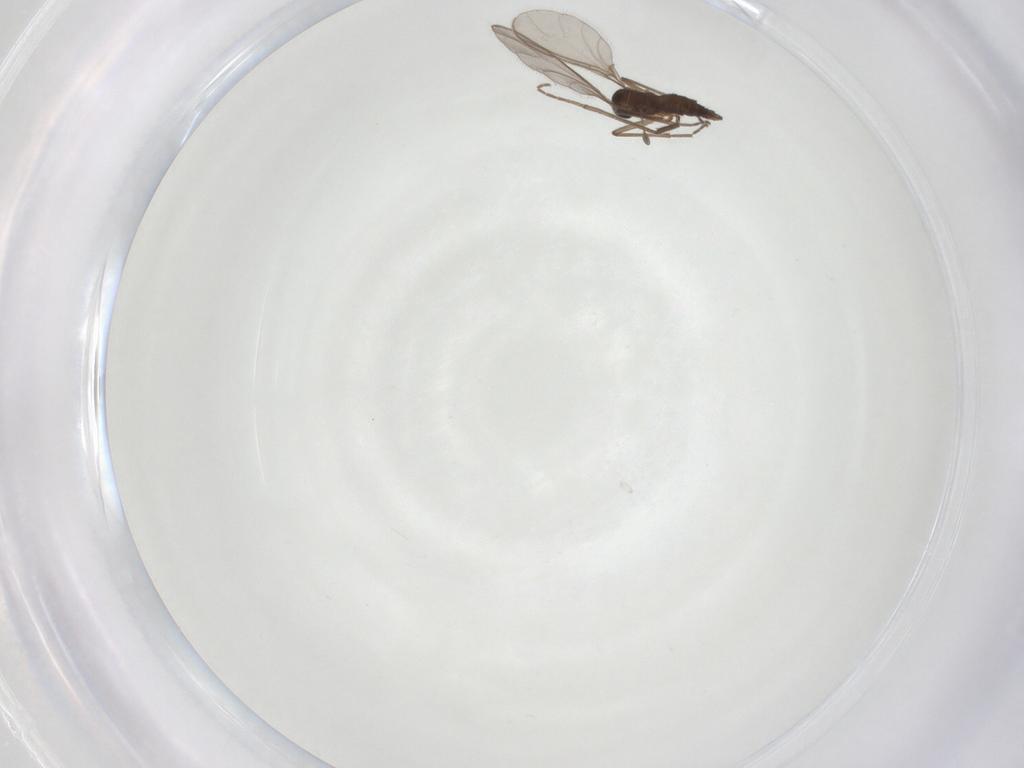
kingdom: Animalia
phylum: Arthropoda
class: Insecta
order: Diptera
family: Sciaridae
